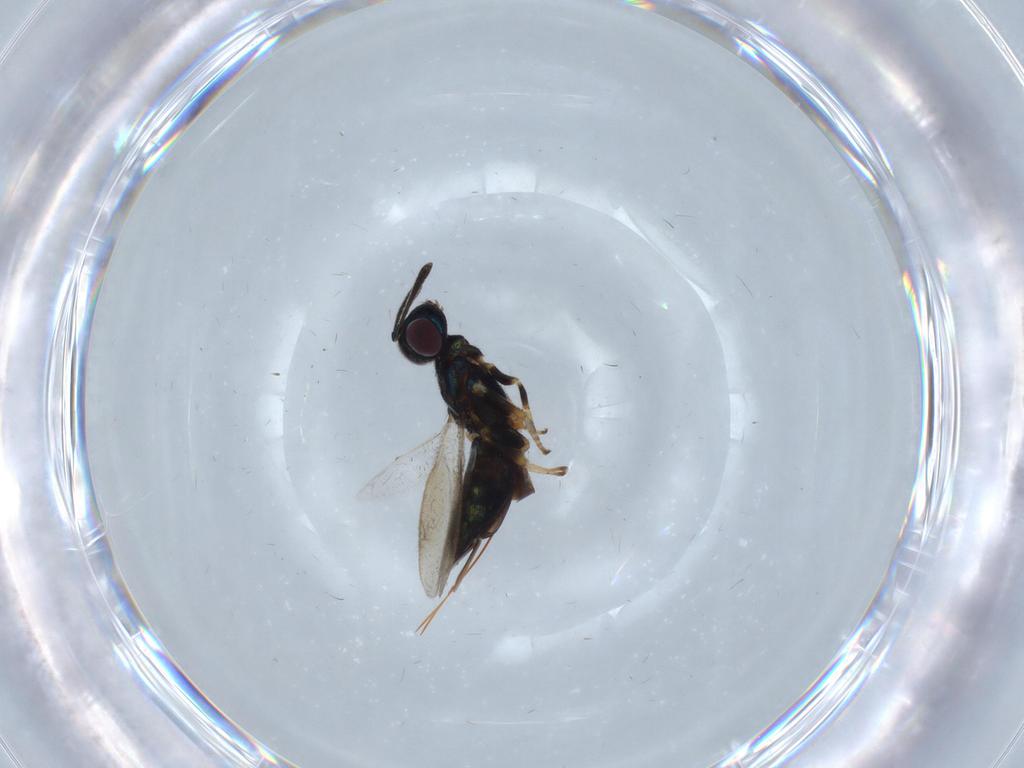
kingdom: Animalia
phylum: Arthropoda
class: Insecta
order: Hymenoptera
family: Eupelmidae
